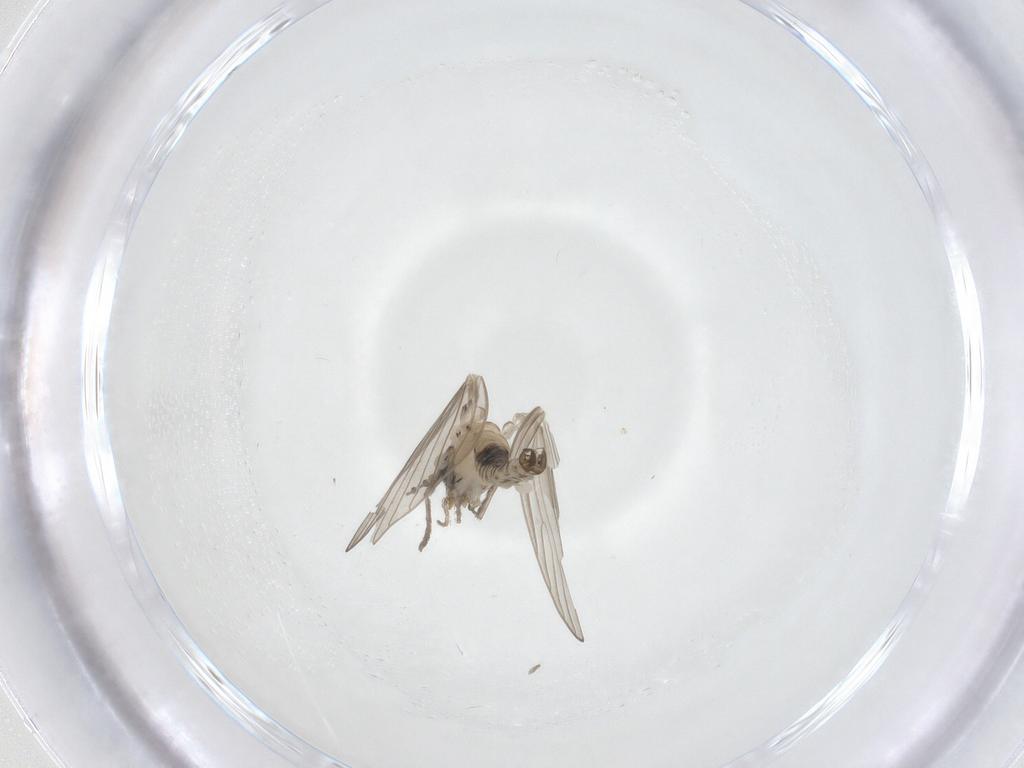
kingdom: Animalia
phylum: Arthropoda
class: Insecta
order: Diptera
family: Psychodidae
